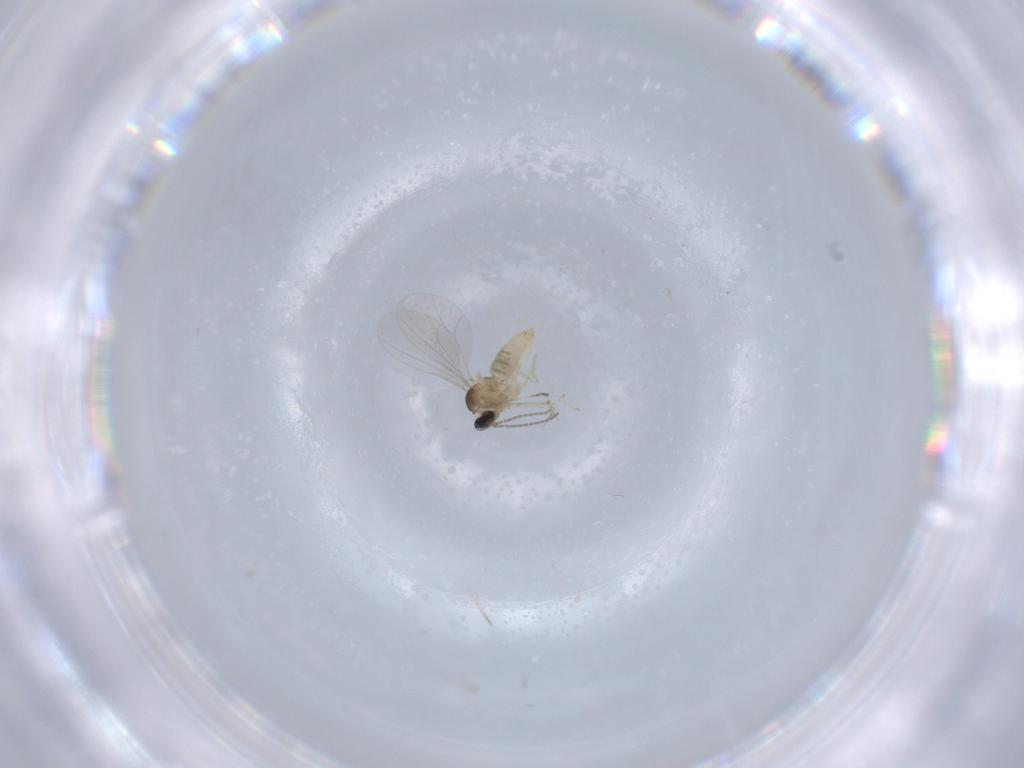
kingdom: Animalia
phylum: Arthropoda
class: Insecta
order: Diptera
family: Cecidomyiidae
